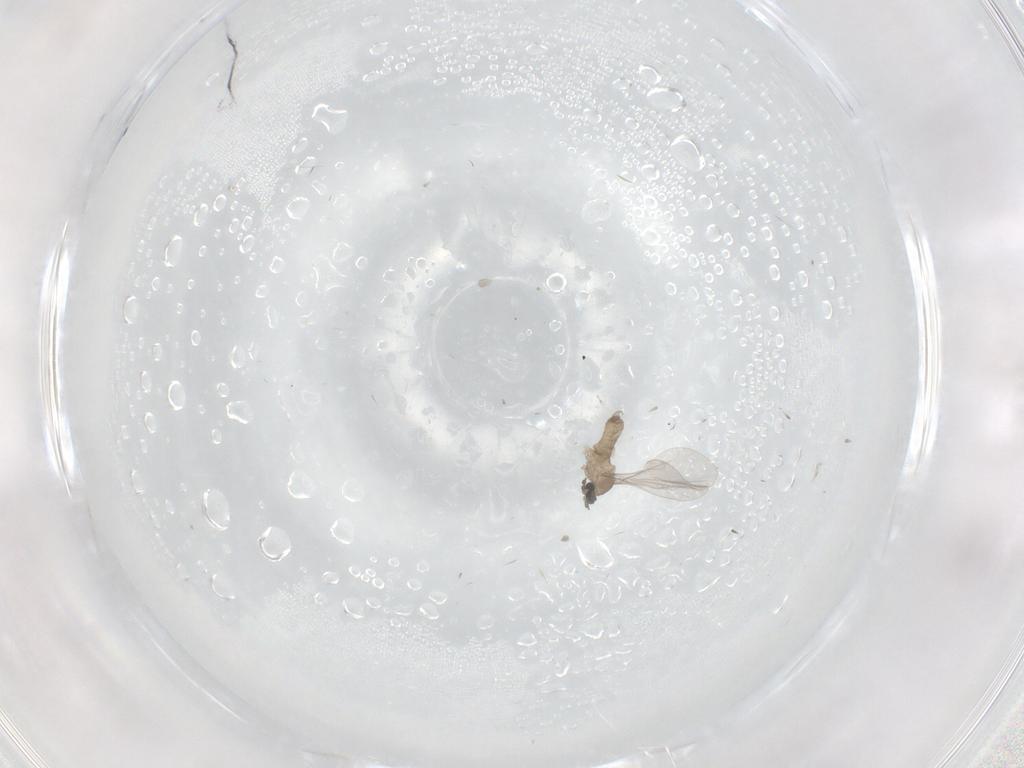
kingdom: Animalia
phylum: Arthropoda
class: Insecta
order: Diptera
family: Cecidomyiidae
